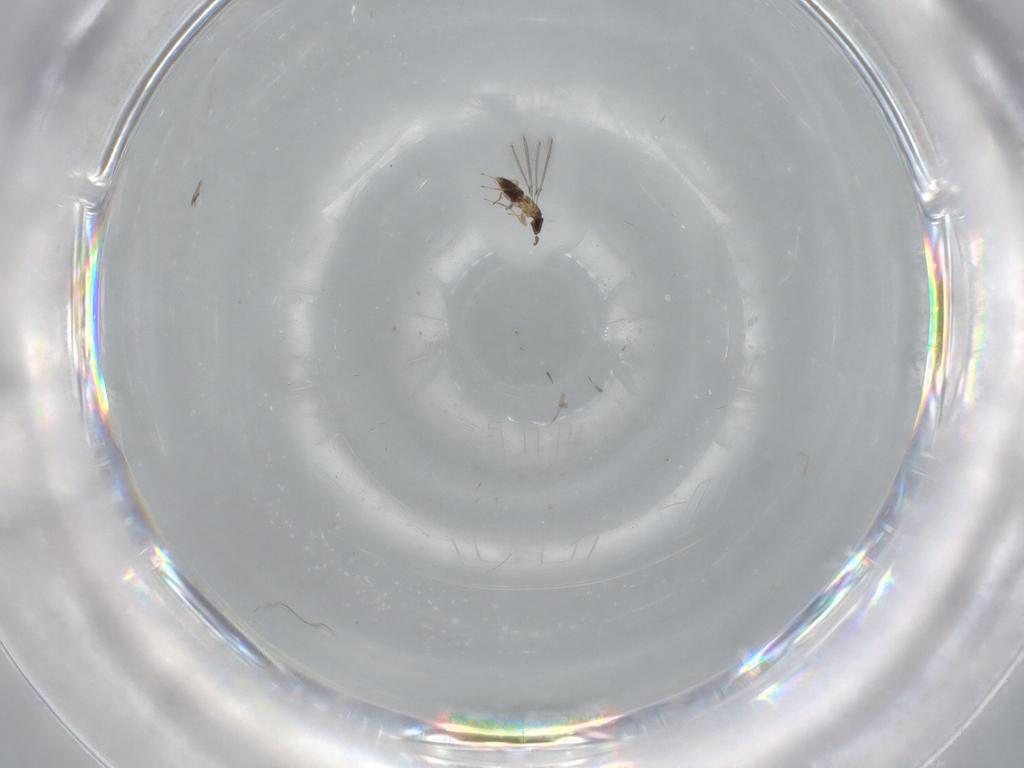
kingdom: Animalia
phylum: Arthropoda
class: Insecta
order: Hymenoptera
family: Mymaridae
